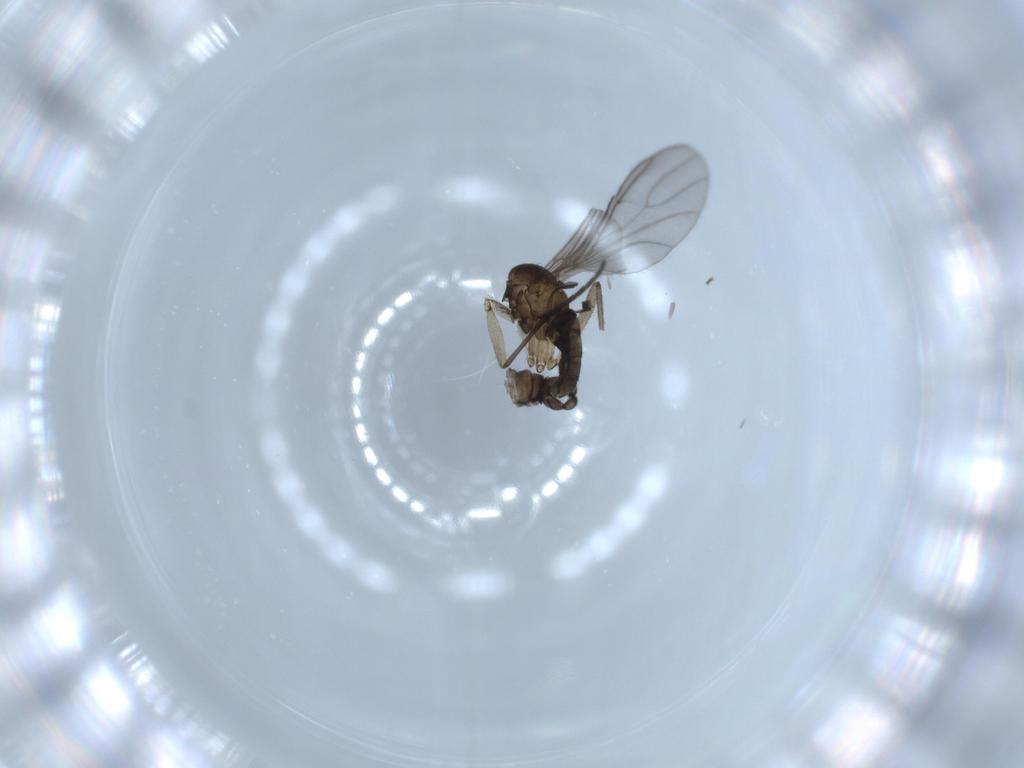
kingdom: Animalia
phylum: Arthropoda
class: Insecta
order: Diptera
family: Sciaridae
